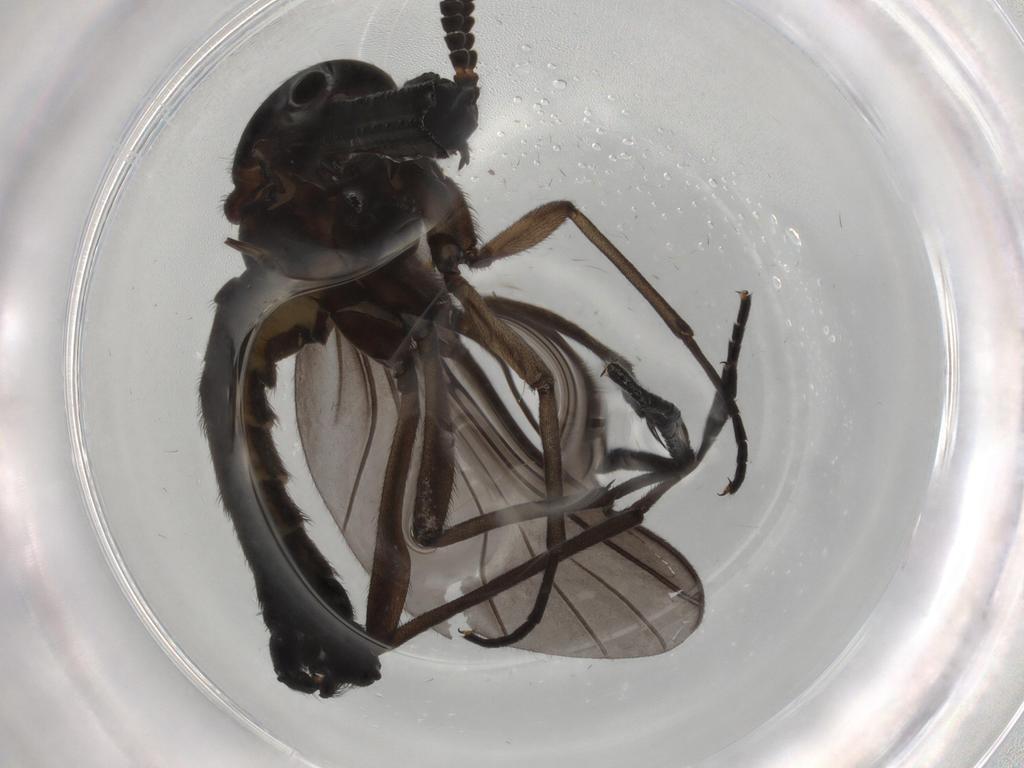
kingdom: Animalia
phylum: Arthropoda
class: Insecta
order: Diptera
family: Sciaridae
